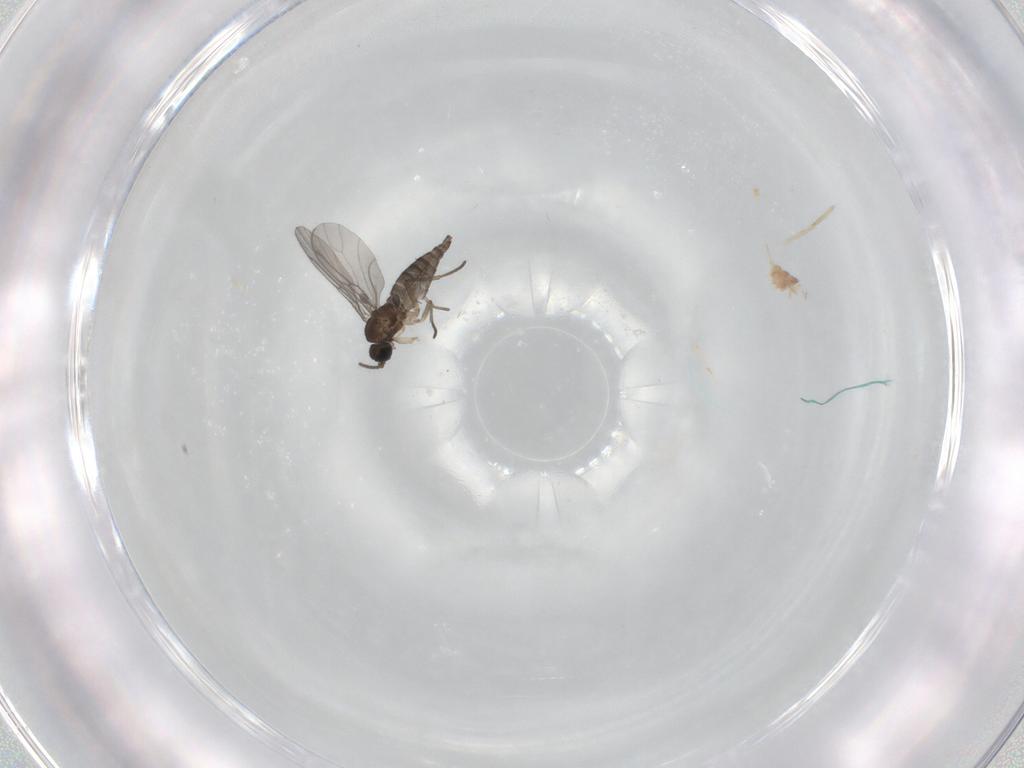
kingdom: Animalia
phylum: Arthropoda
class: Insecta
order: Diptera
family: Sciaridae
